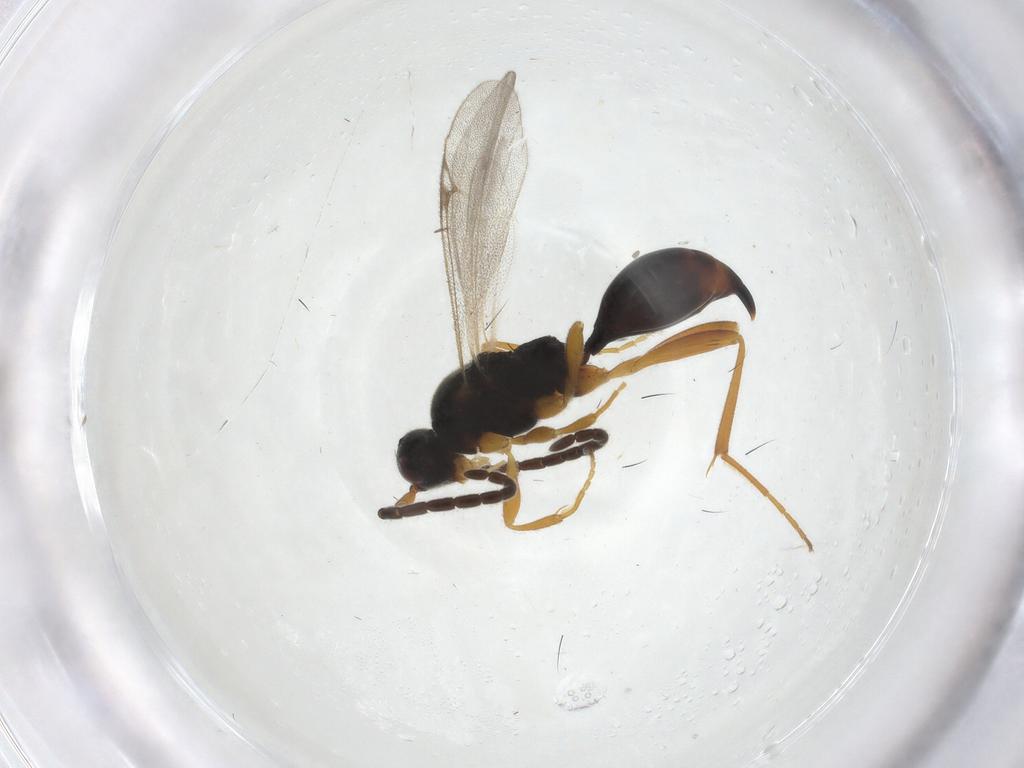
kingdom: Animalia
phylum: Arthropoda
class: Insecta
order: Hymenoptera
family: Proctotrupidae
